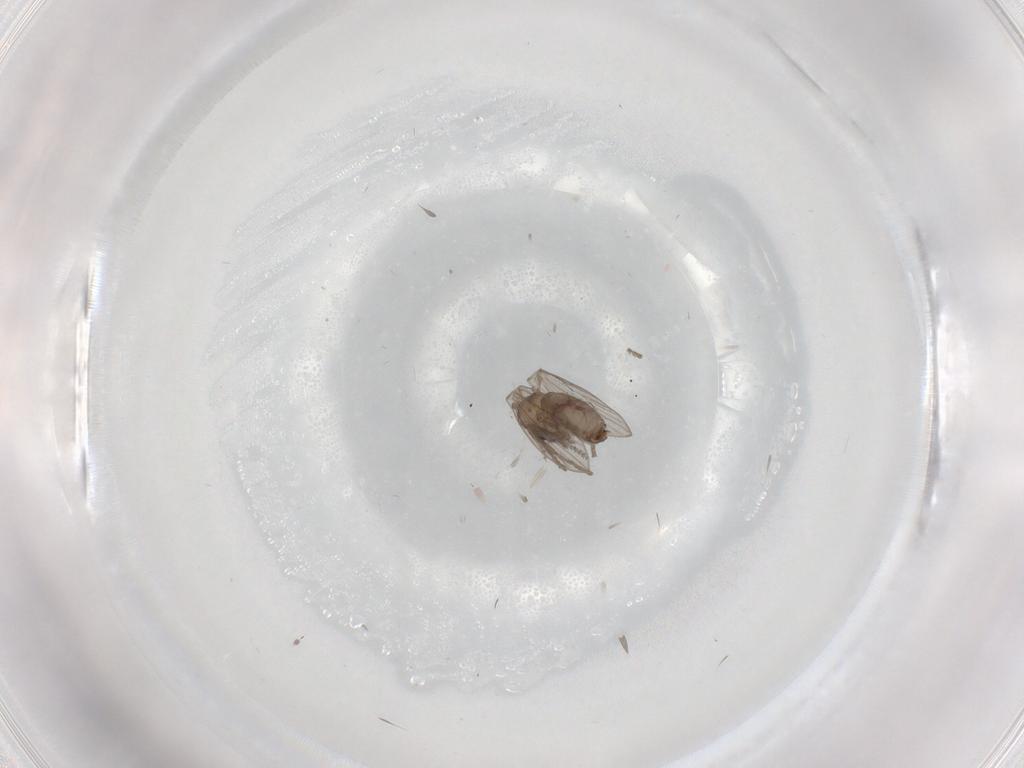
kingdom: Animalia
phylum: Arthropoda
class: Insecta
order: Diptera
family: Psychodidae
